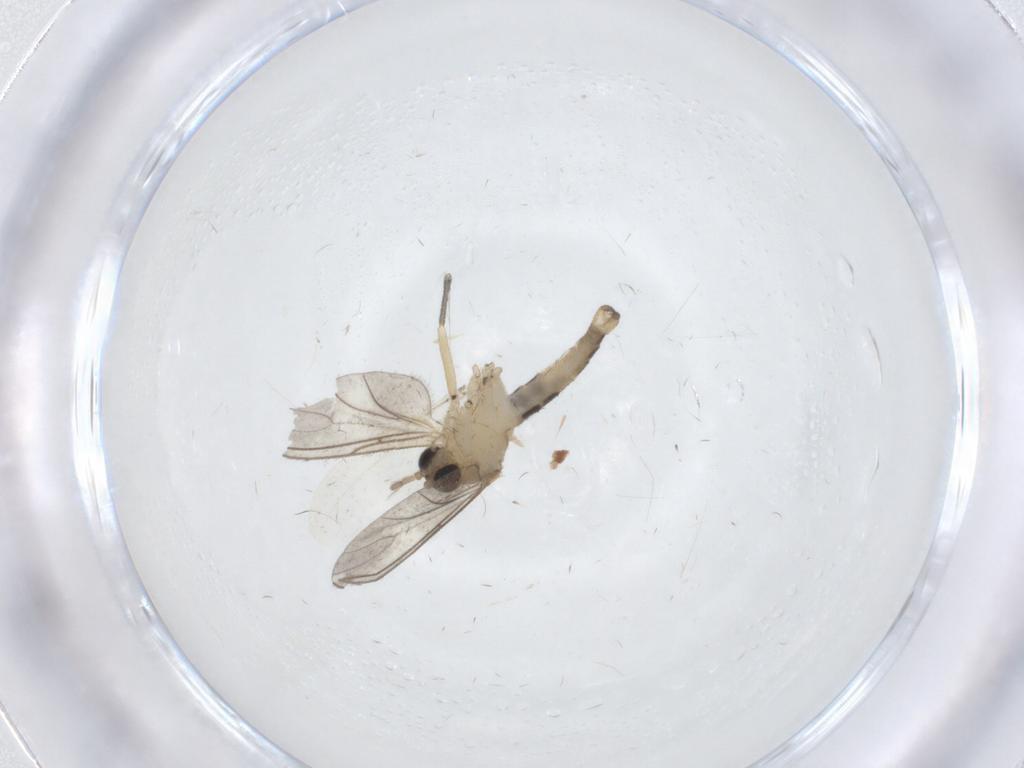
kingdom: Animalia
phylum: Arthropoda
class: Insecta
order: Diptera
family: Sciaridae
